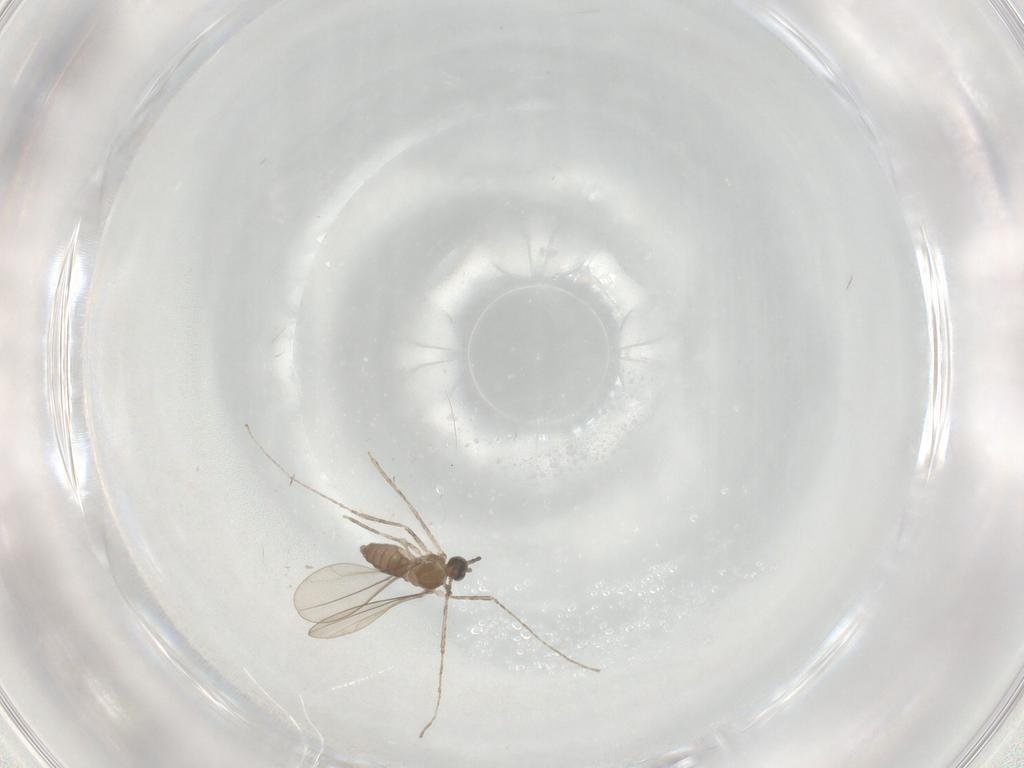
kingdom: Animalia
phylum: Arthropoda
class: Insecta
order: Diptera
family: Cecidomyiidae
